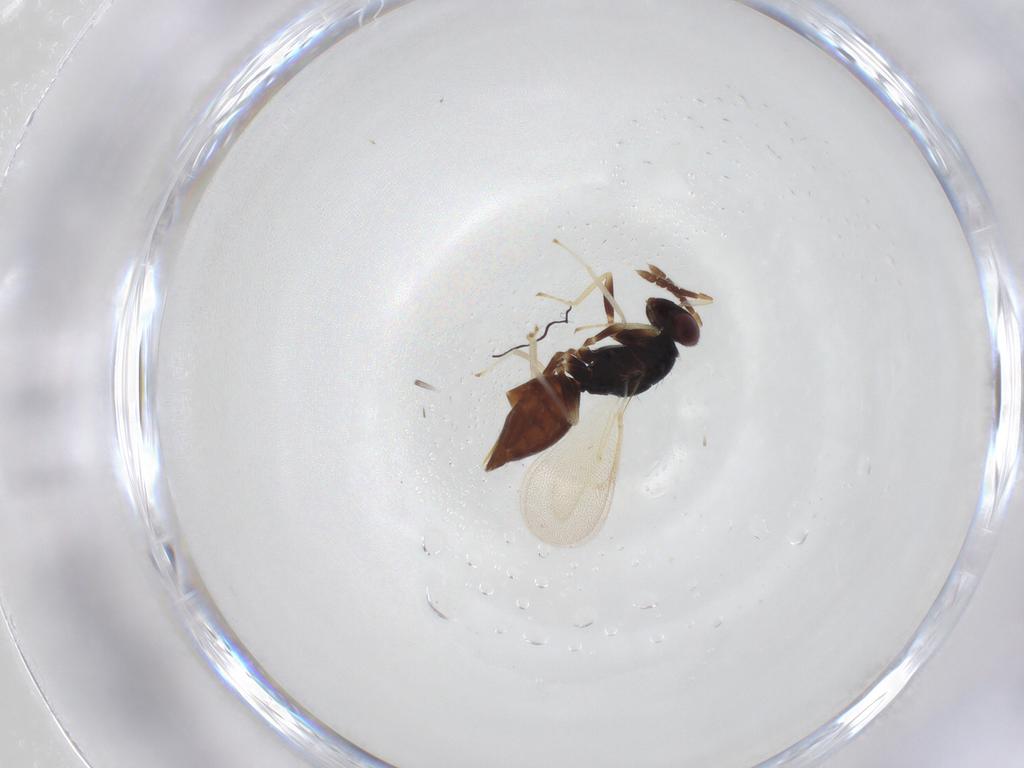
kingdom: Animalia
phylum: Arthropoda
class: Insecta
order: Hymenoptera
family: Eulophidae
